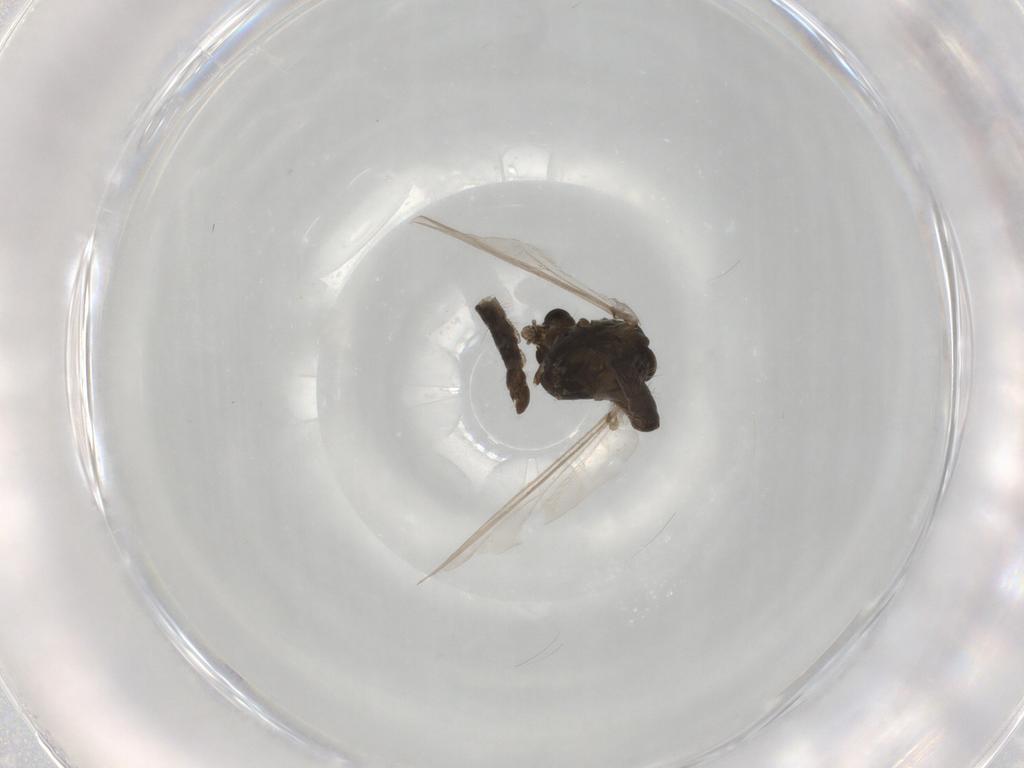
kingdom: Animalia
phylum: Arthropoda
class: Insecta
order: Diptera
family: Chironomidae
